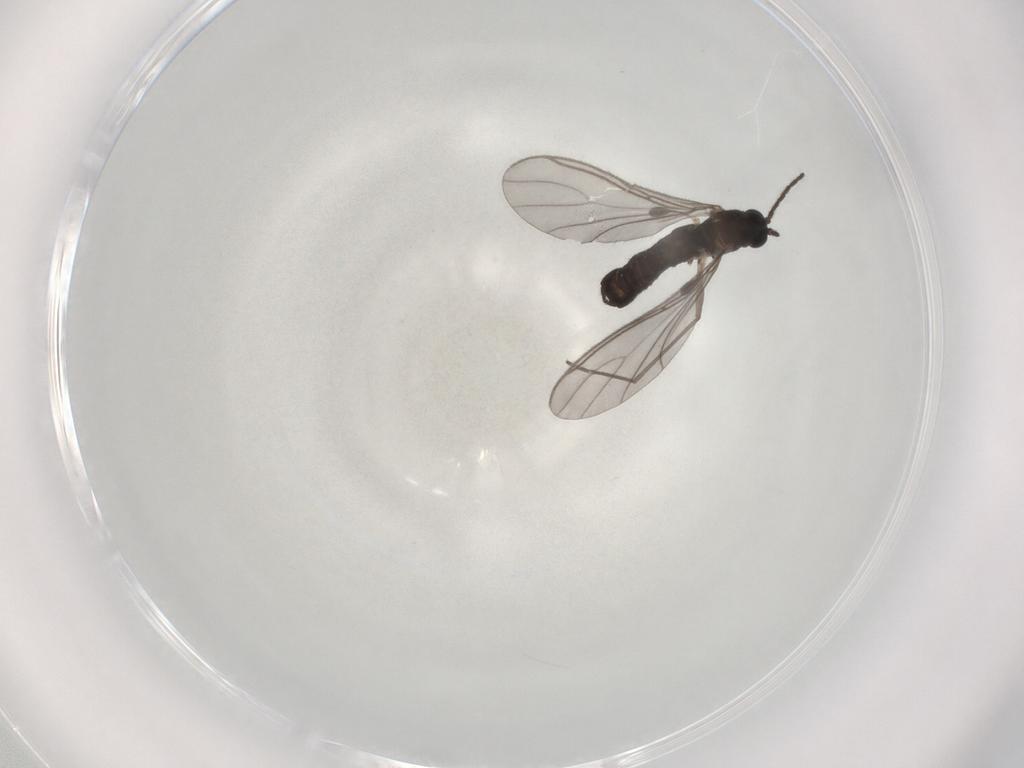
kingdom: Animalia
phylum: Arthropoda
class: Insecta
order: Diptera
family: Sciaridae
